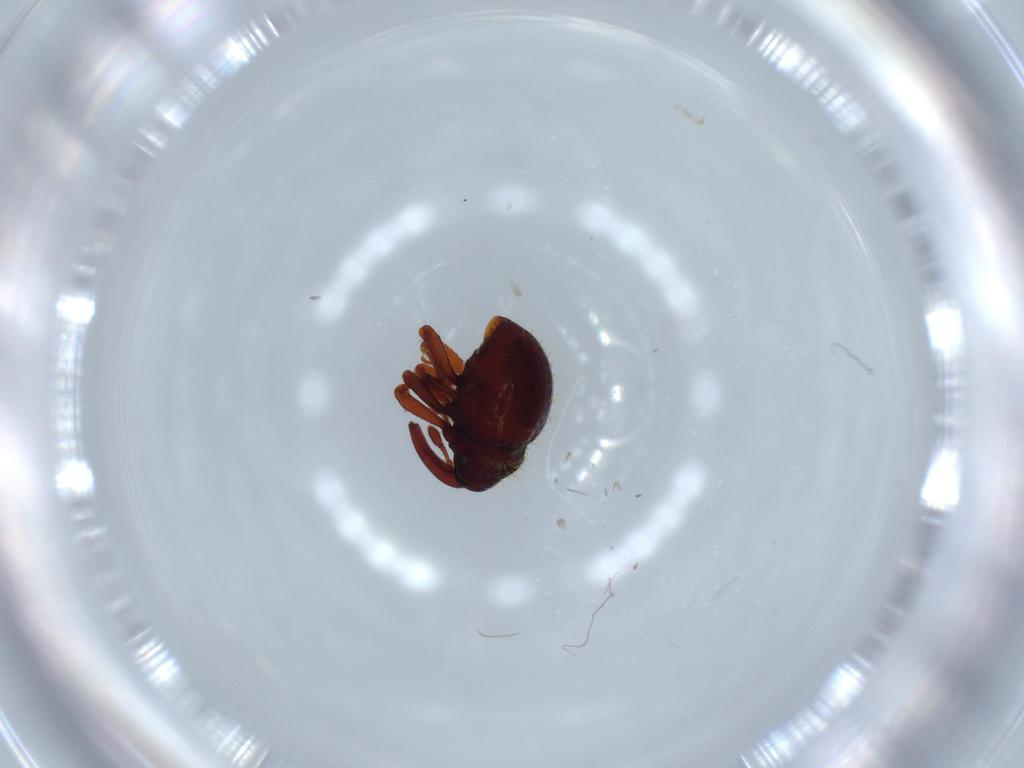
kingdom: Animalia
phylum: Arthropoda
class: Insecta
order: Coleoptera
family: Curculionidae
